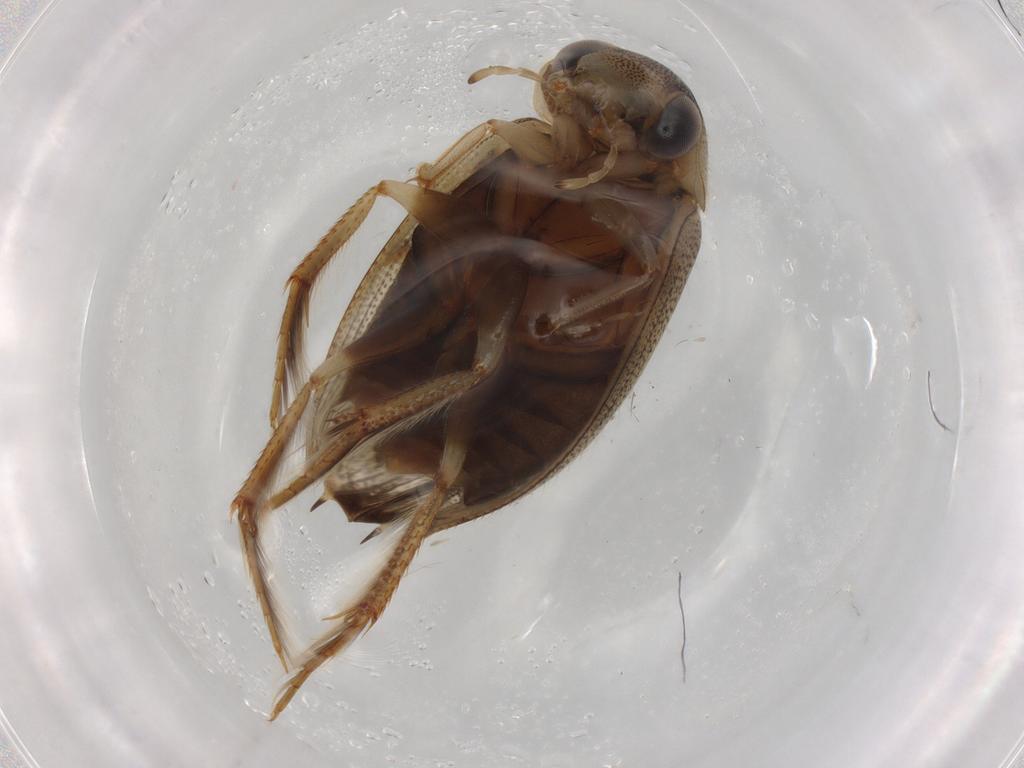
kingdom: Animalia
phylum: Arthropoda
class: Insecta
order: Coleoptera
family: Hydrophilidae
